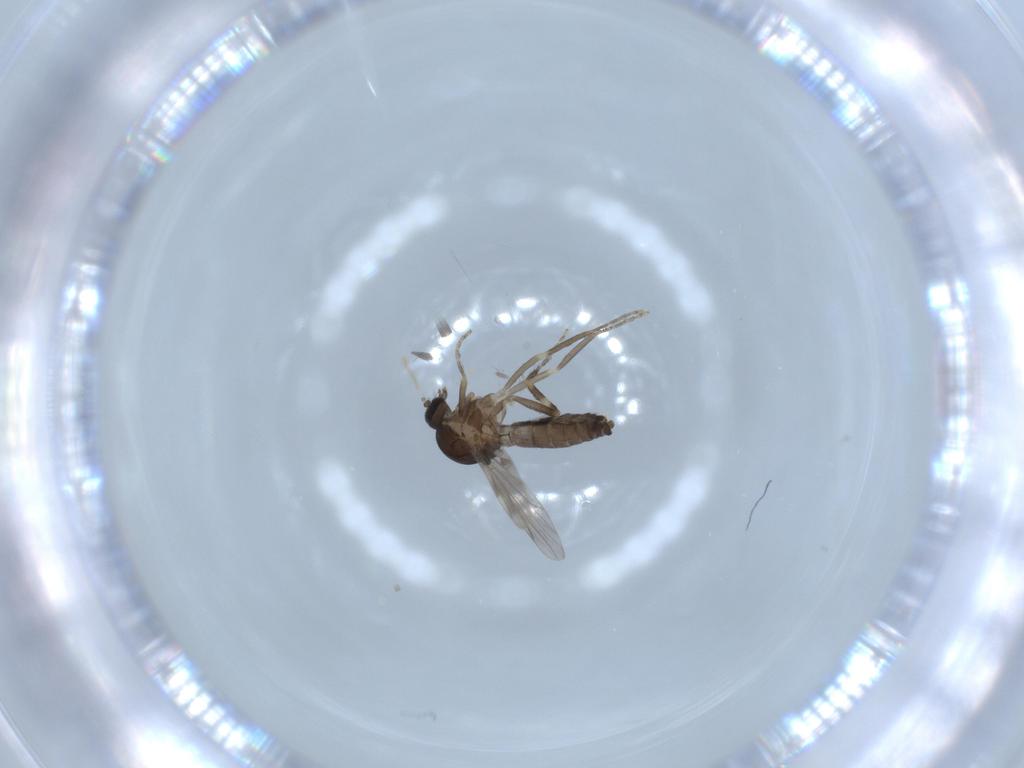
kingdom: Animalia
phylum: Arthropoda
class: Insecta
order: Diptera
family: Ceratopogonidae
